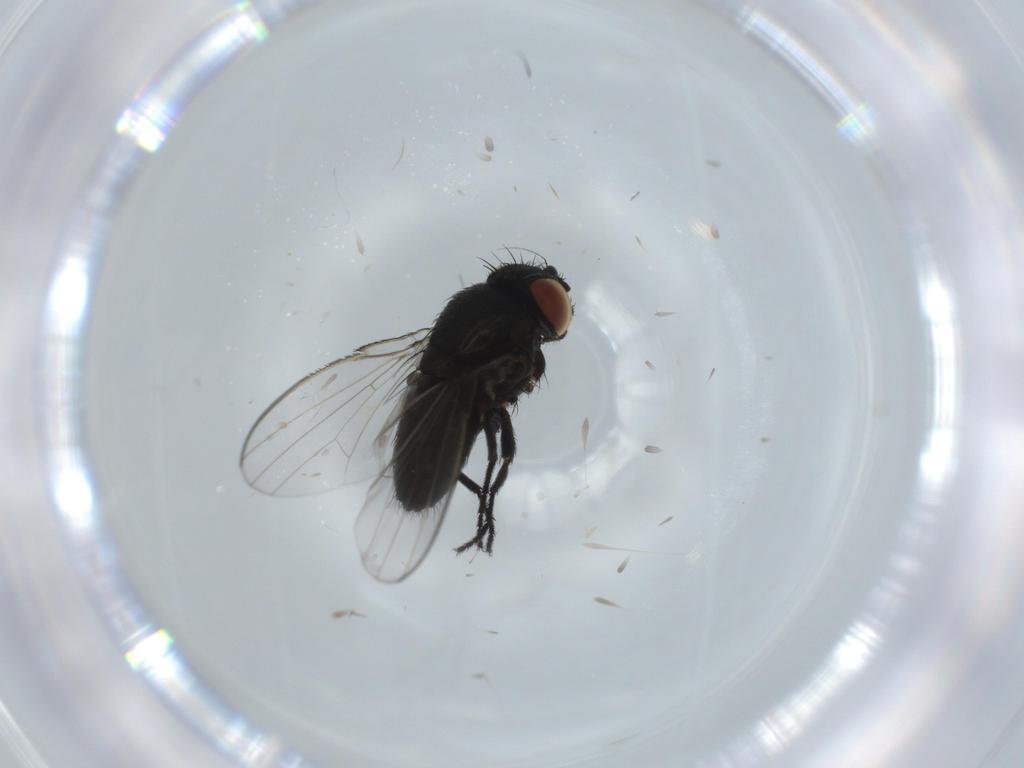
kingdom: Animalia
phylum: Arthropoda
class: Insecta
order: Diptera
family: Milichiidae
